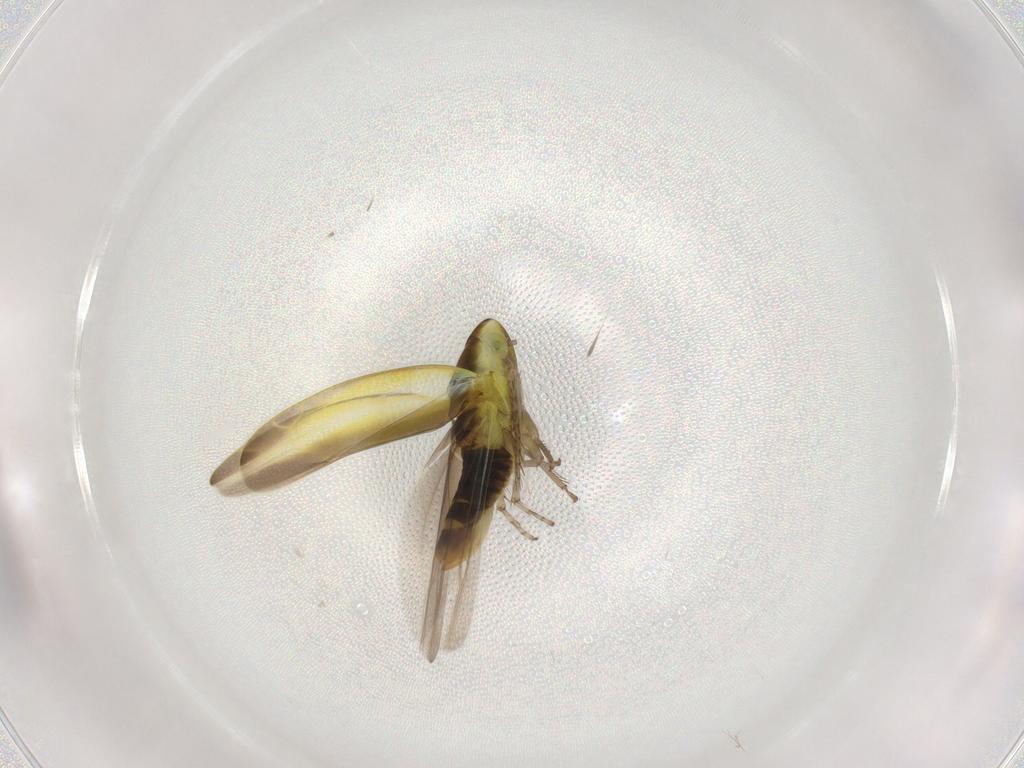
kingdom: Animalia
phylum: Arthropoda
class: Insecta
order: Hemiptera
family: Cicadellidae
